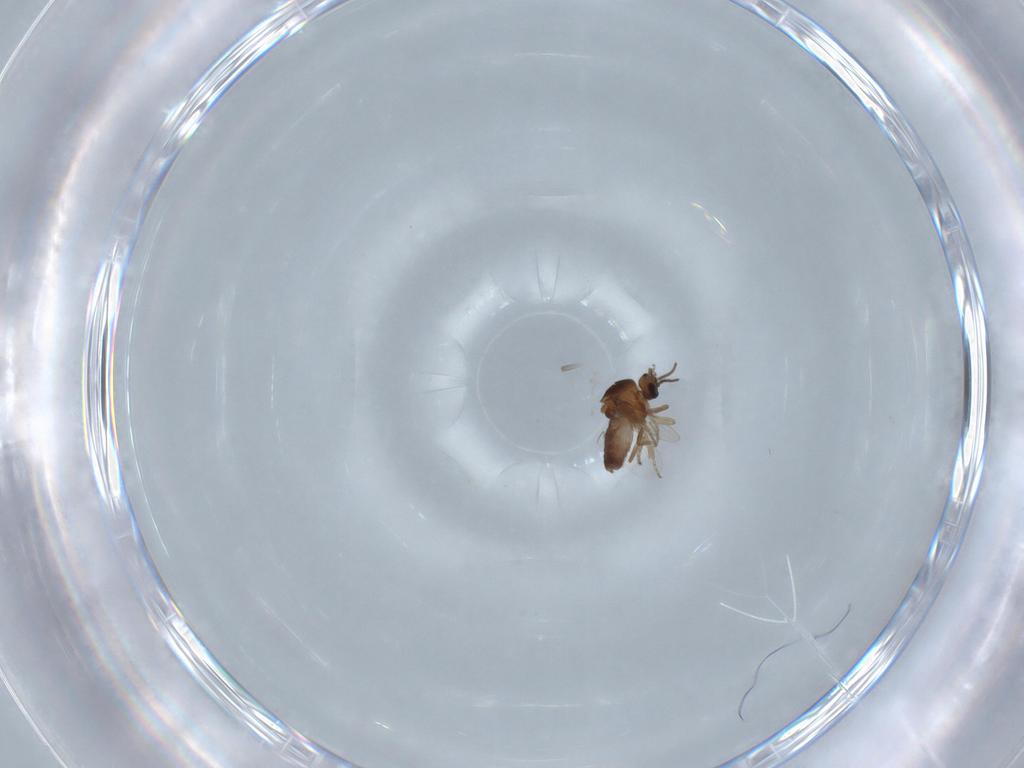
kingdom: Animalia
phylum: Arthropoda
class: Insecta
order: Diptera
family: Ceratopogonidae
